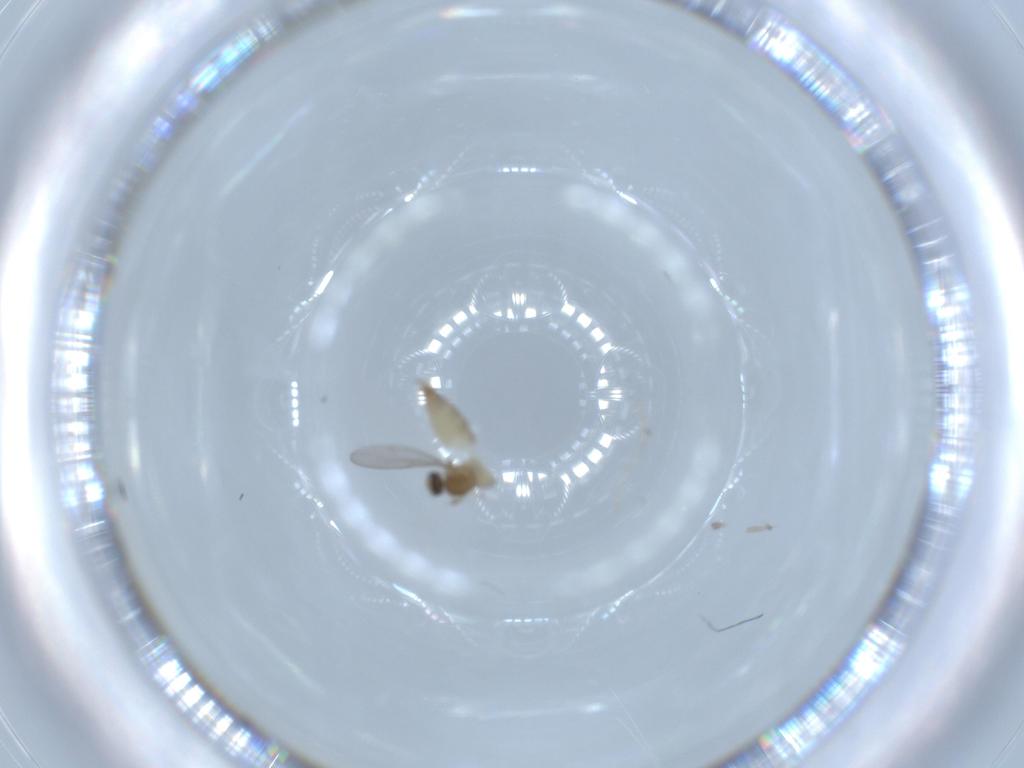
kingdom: Animalia
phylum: Arthropoda
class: Insecta
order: Diptera
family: Cecidomyiidae
